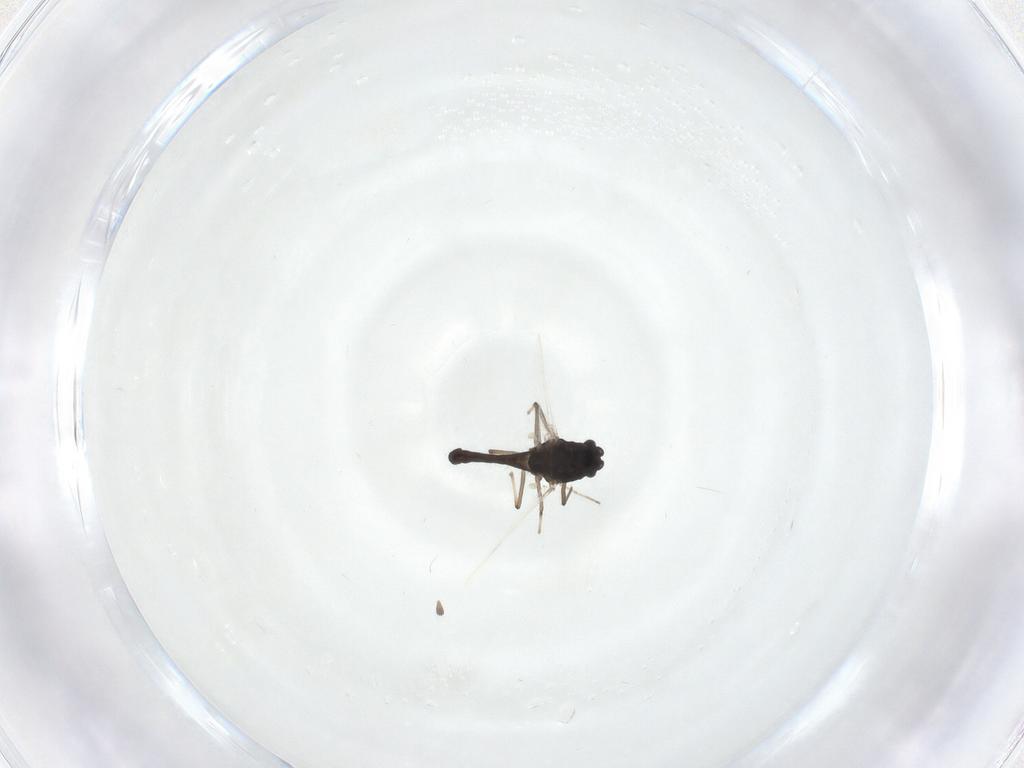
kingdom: Animalia
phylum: Arthropoda
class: Insecta
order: Diptera
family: Chironomidae
